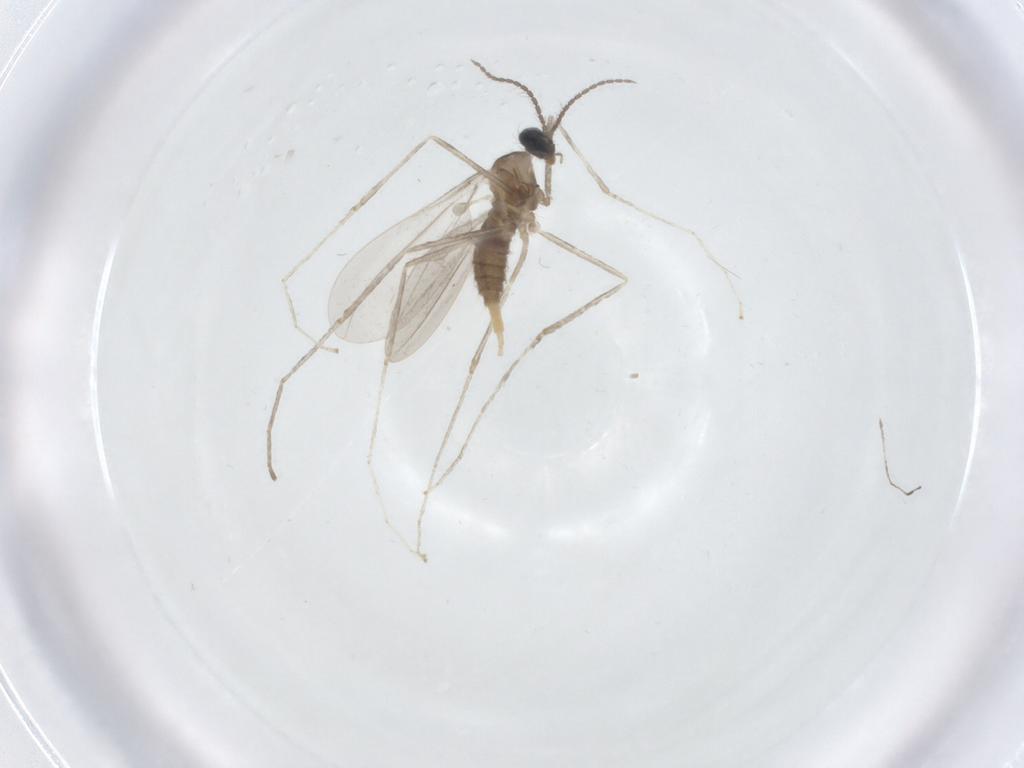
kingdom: Animalia
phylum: Arthropoda
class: Insecta
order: Diptera
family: Cecidomyiidae
